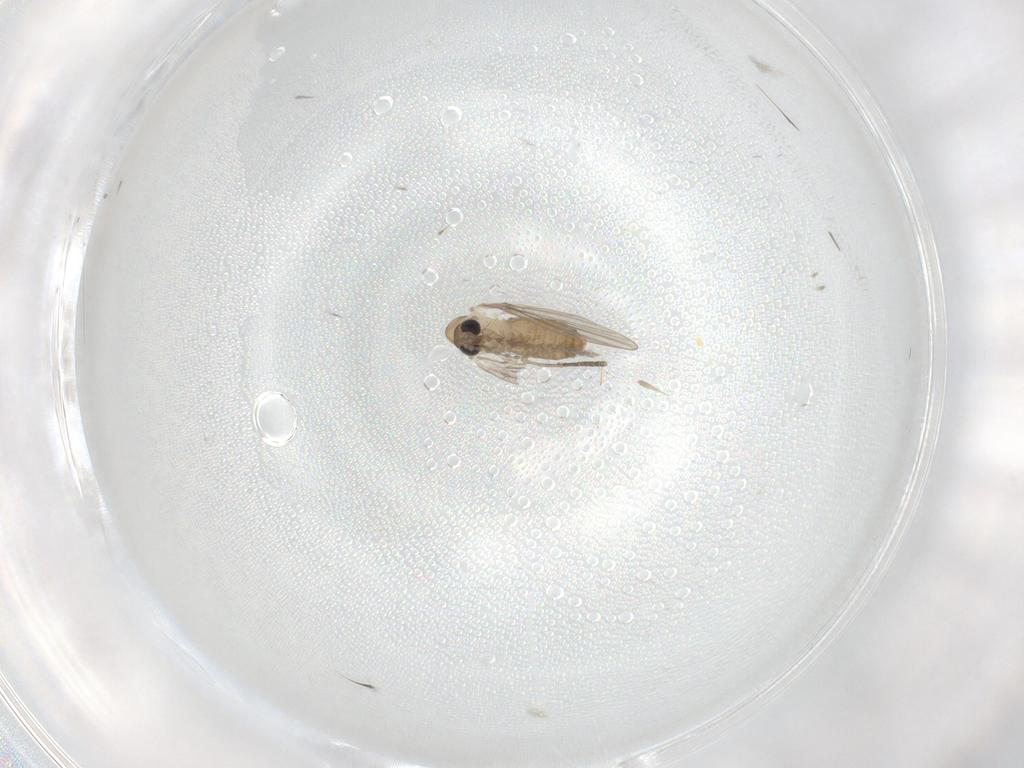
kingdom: Animalia
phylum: Arthropoda
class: Insecta
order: Diptera
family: Psychodidae
